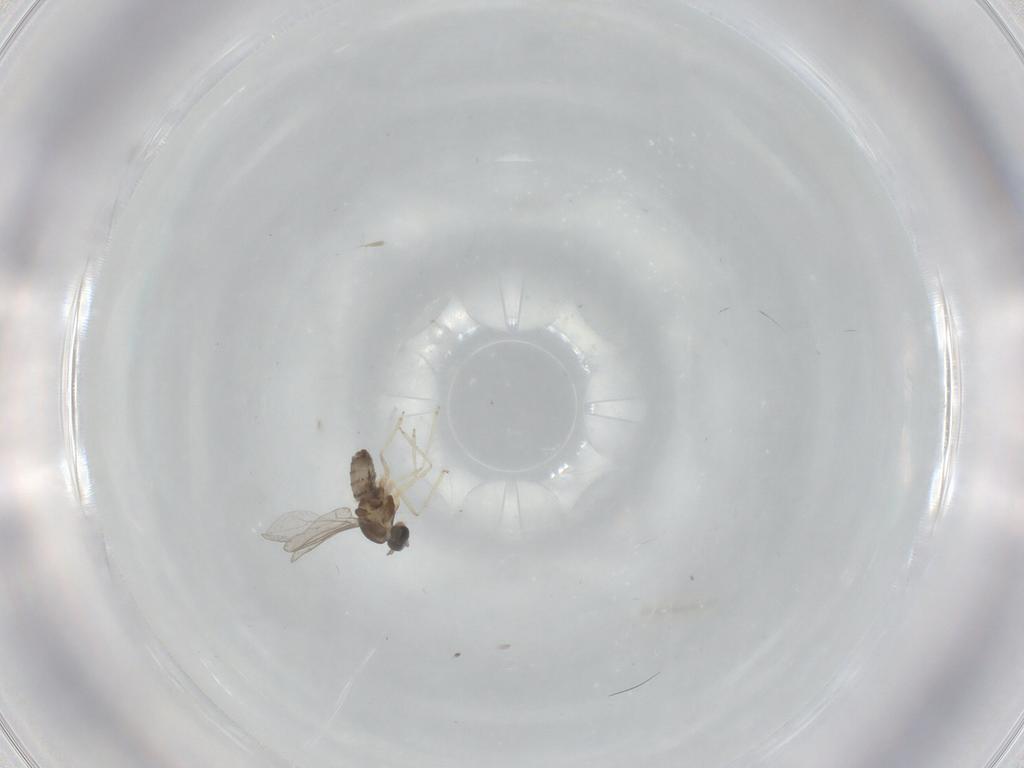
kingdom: Animalia
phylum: Arthropoda
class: Insecta
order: Diptera
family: Cecidomyiidae
